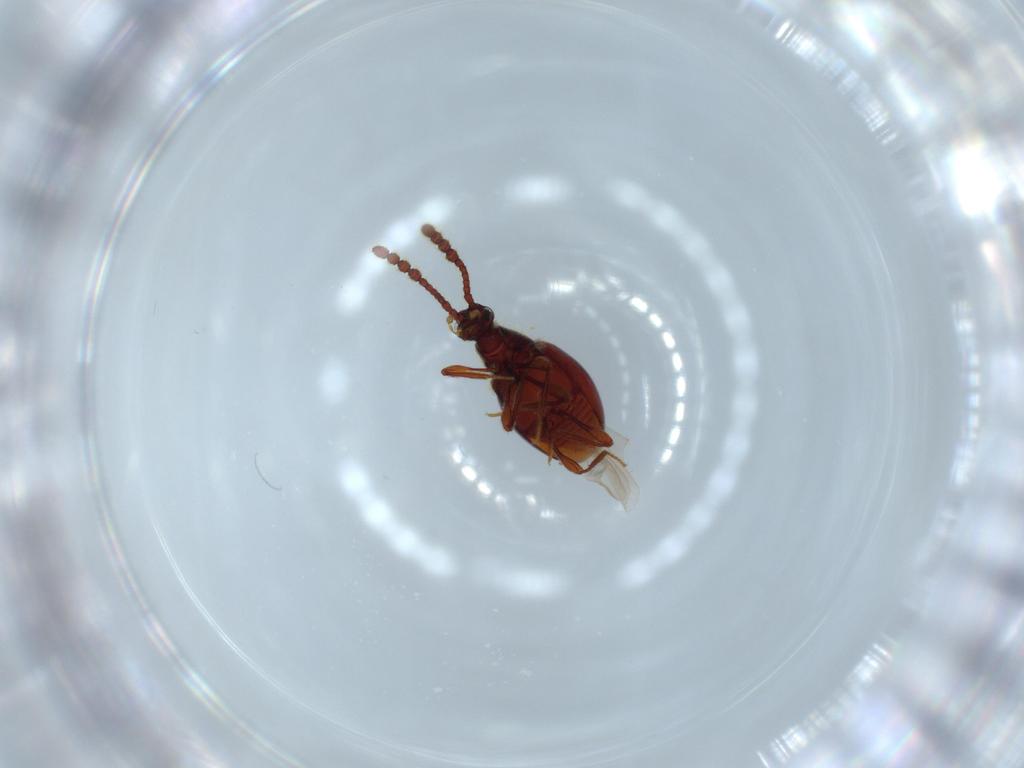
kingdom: Animalia
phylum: Arthropoda
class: Insecta
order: Coleoptera
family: Staphylinidae
